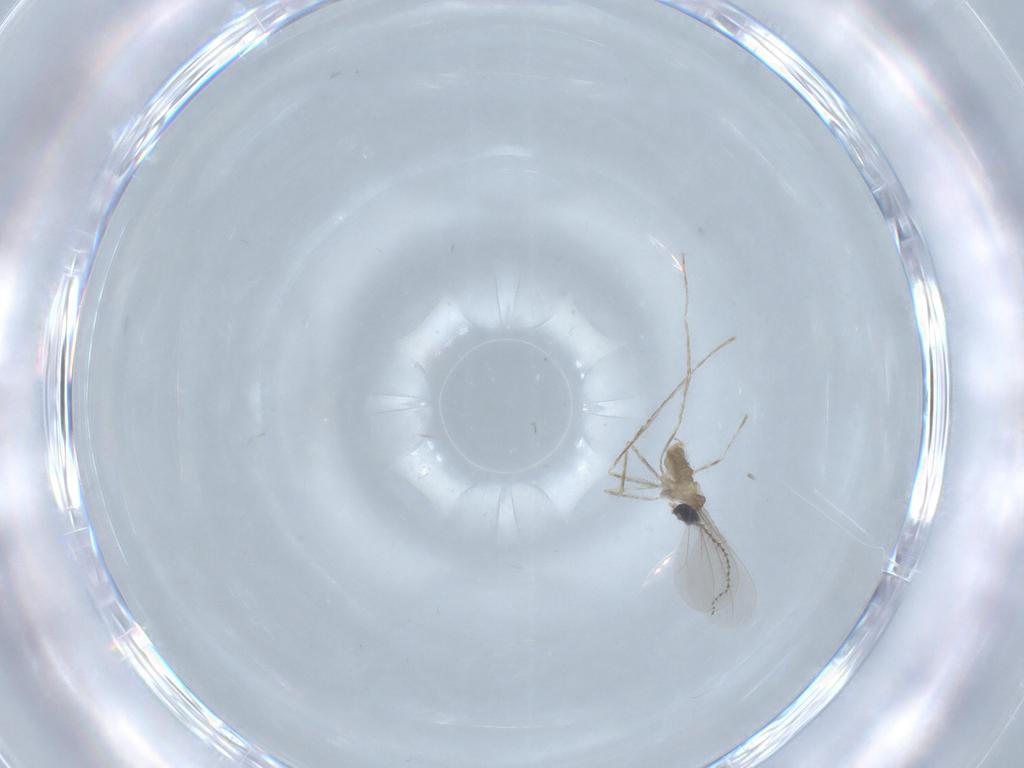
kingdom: Animalia
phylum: Arthropoda
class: Insecta
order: Diptera
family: Cecidomyiidae
